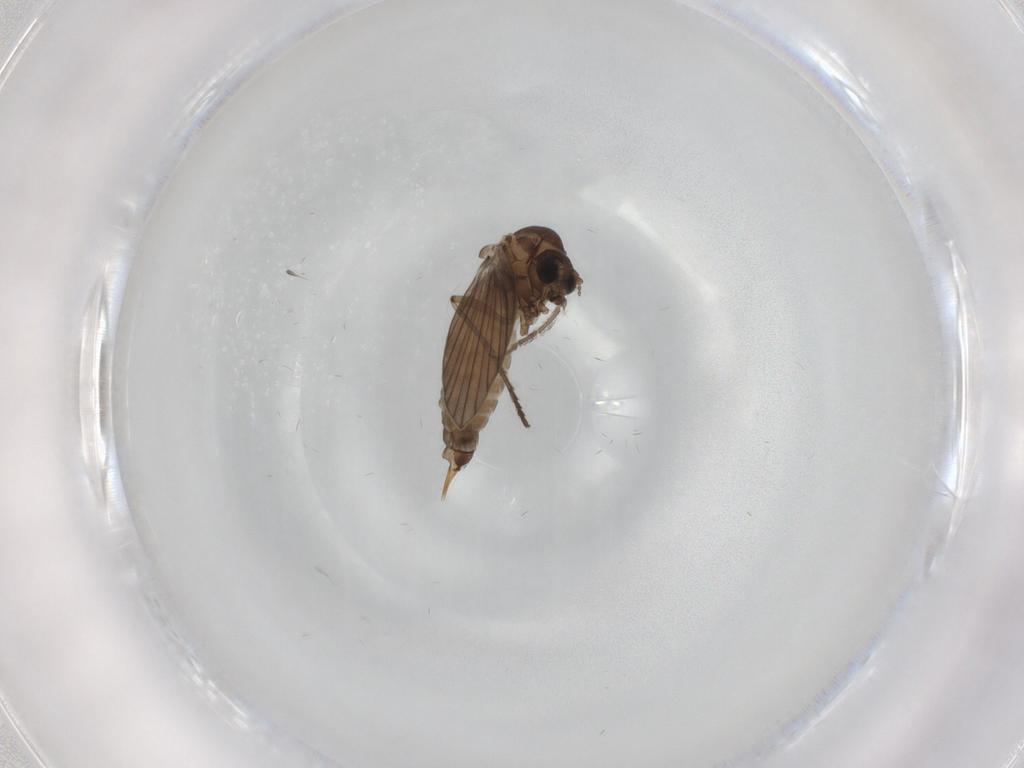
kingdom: Animalia
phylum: Arthropoda
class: Insecta
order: Diptera
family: Psychodidae
